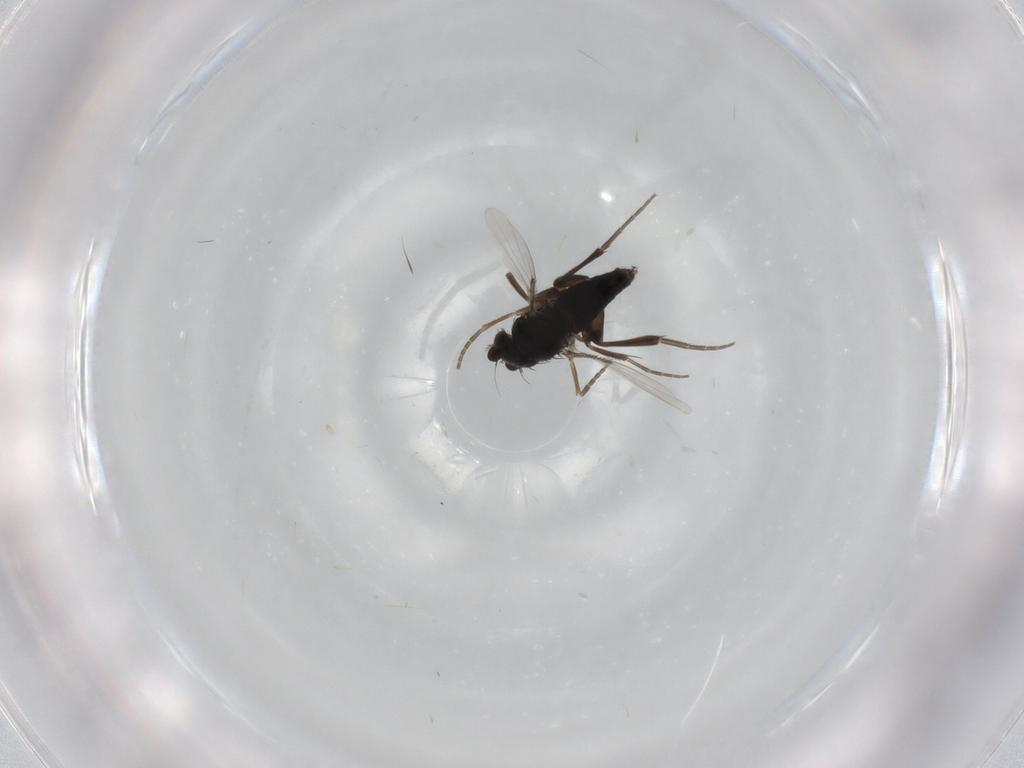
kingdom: Animalia
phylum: Arthropoda
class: Insecta
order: Diptera
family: Phoridae
